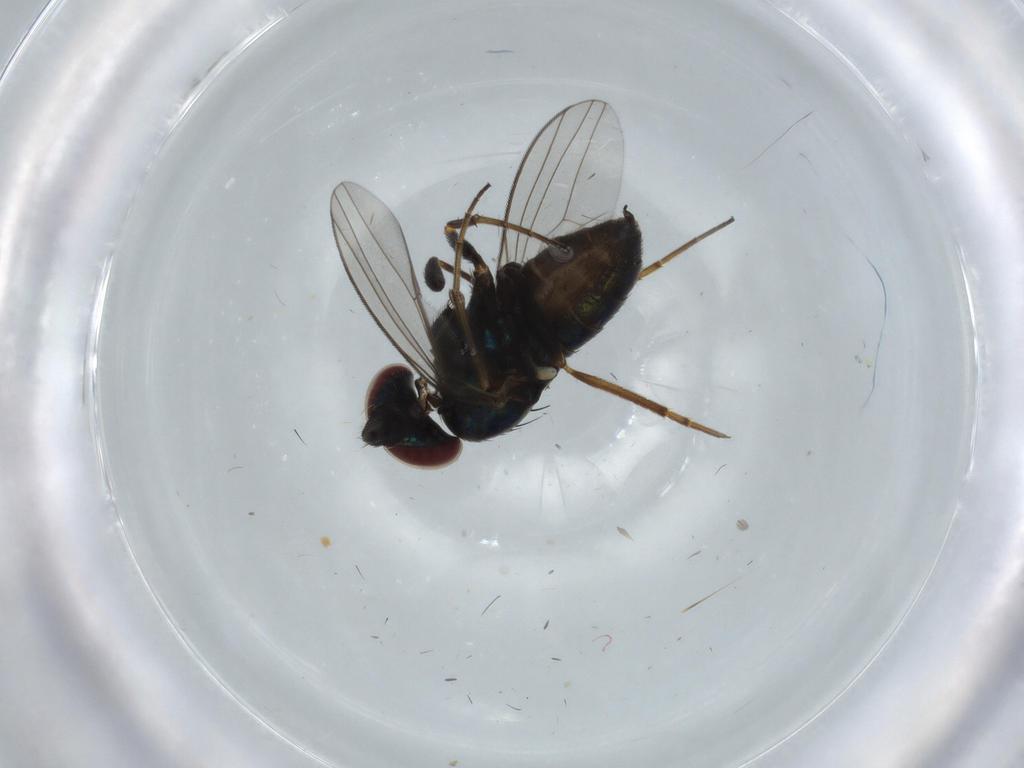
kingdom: Animalia
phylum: Arthropoda
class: Insecta
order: Diptera
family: Dolichopodidae
